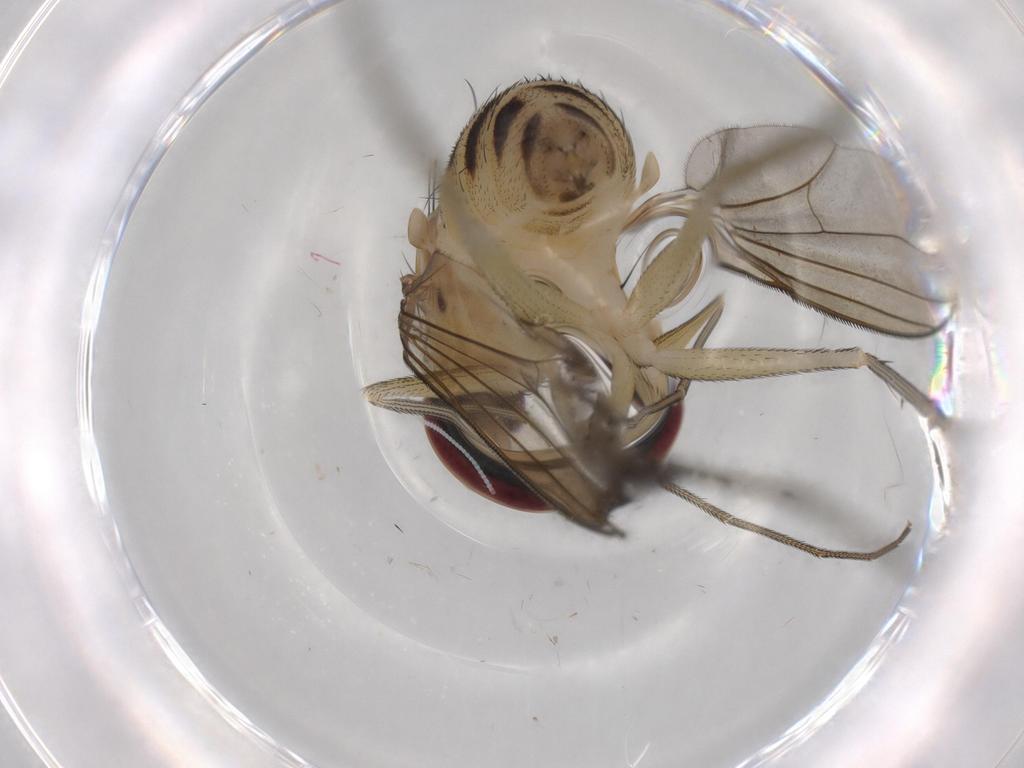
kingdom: Animalia
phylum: Arthropoda
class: Insecta
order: Diptera
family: Dolichopodidae
